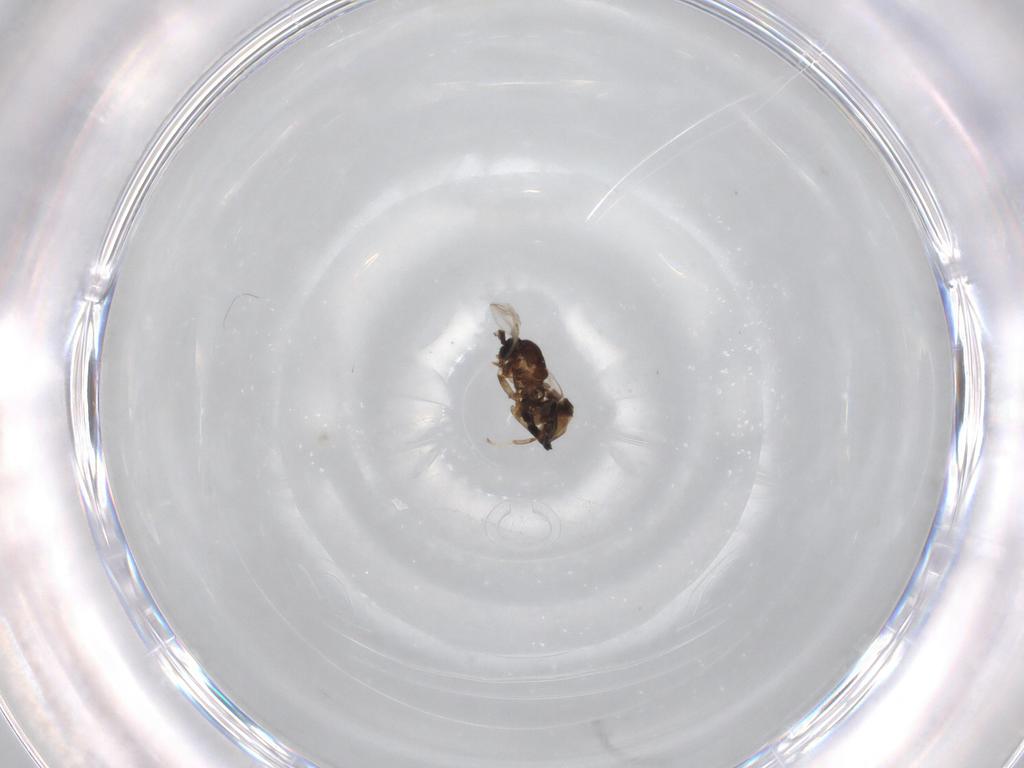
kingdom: Animalia
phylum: Arthropoda
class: Insecta
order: Diptera
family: Scatopsidae
